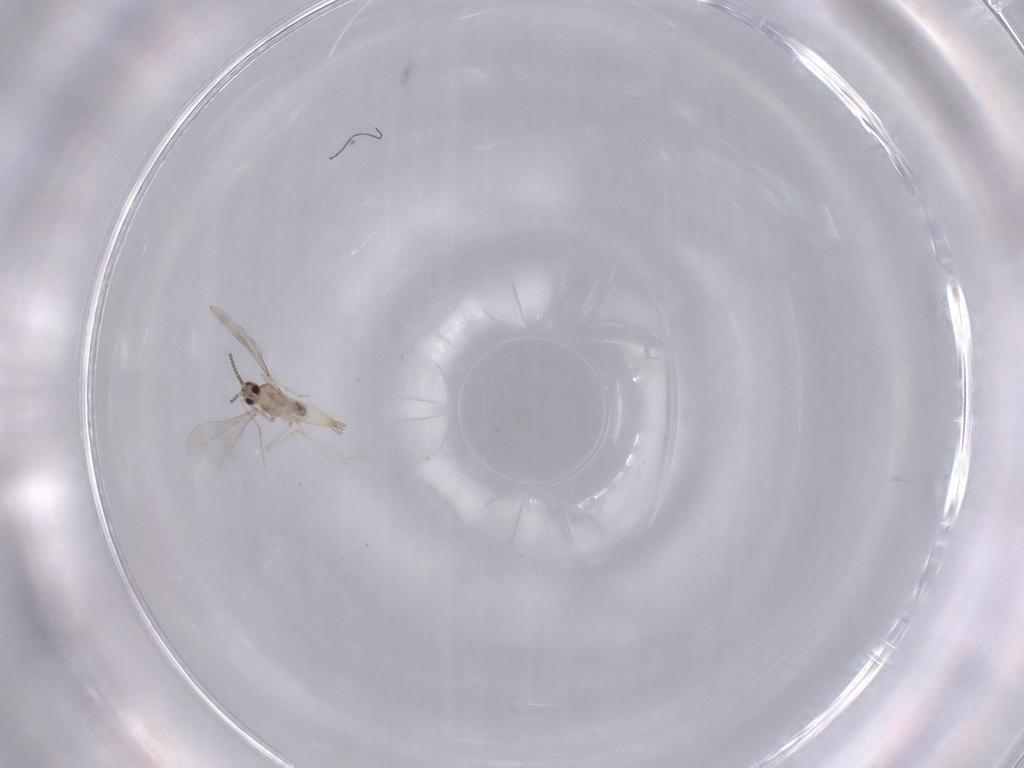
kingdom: Animalia
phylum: Arthropoda
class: Insecta
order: Diptera
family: Cecidomyiidae
